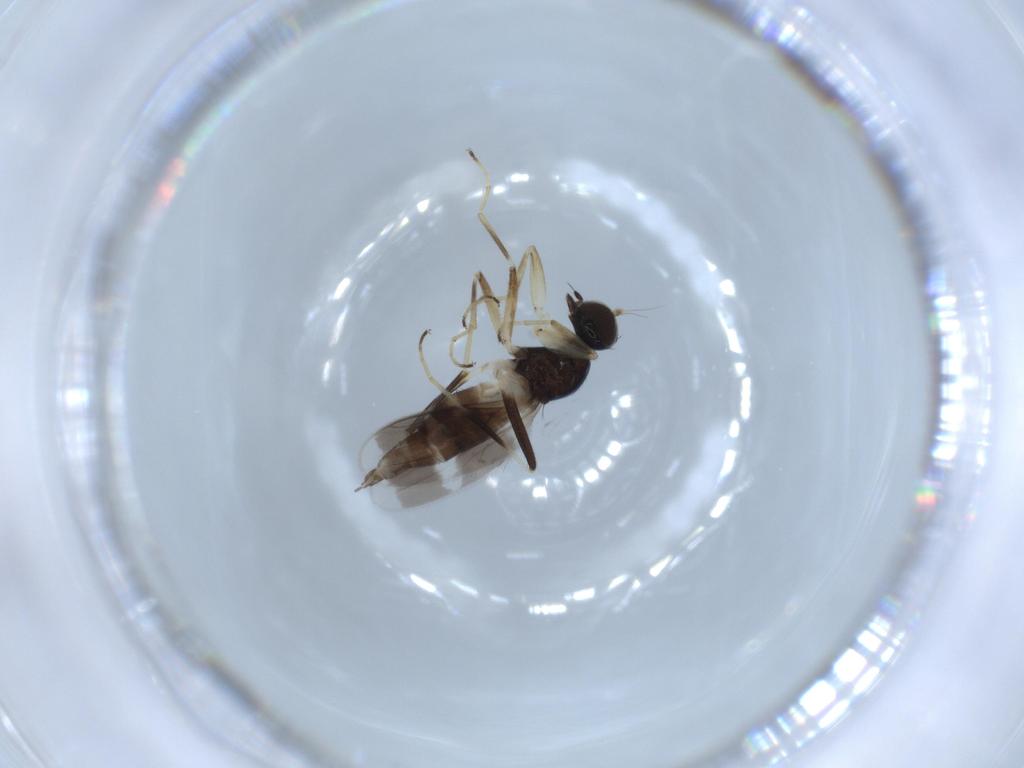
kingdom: Animalia
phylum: Arthropoda
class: Insecta
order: Diptera
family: Hybotidae
